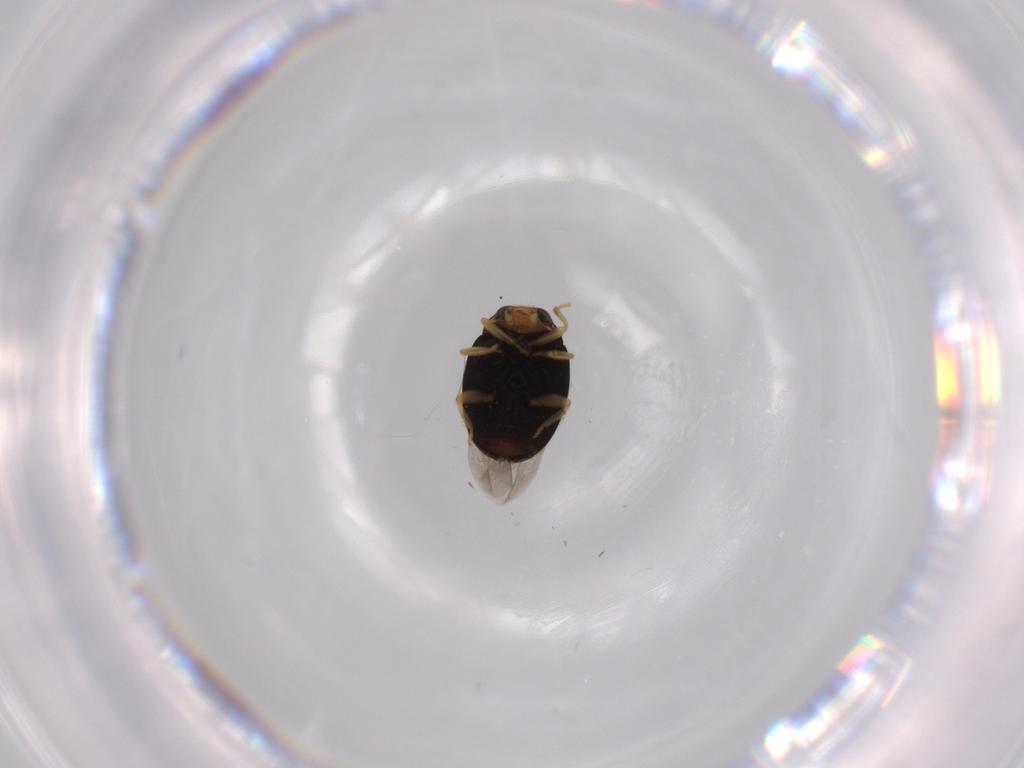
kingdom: Animalia
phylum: Arthropoda
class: Insecta
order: Coleoptera
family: Coccinellidae
